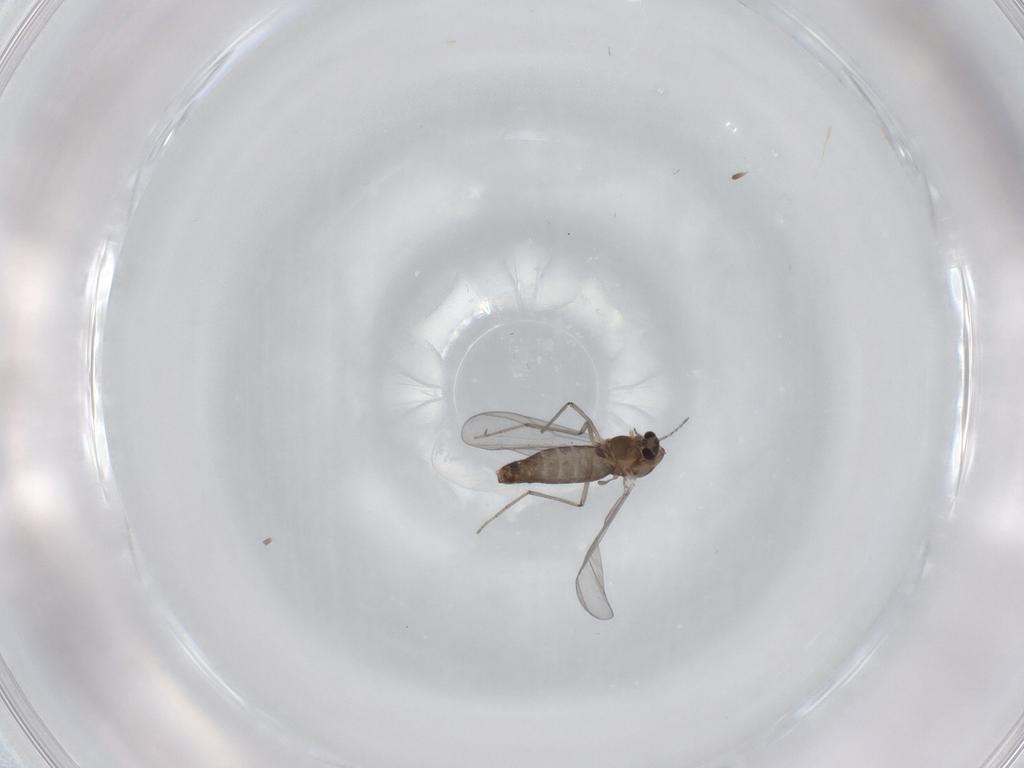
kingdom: Animalia
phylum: Arthropoda
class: Insecta
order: Diptera
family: Chironomidae
